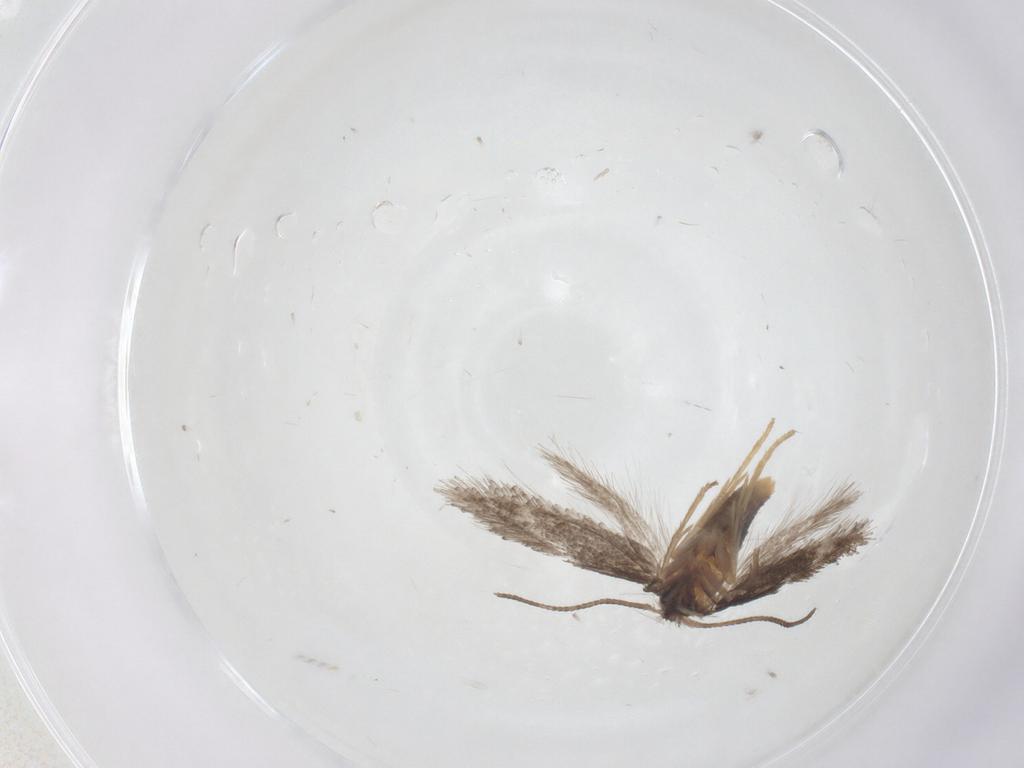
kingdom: Animalia
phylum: Arthropoda
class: Insecta
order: Lepidoptera
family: Nepticulidae
